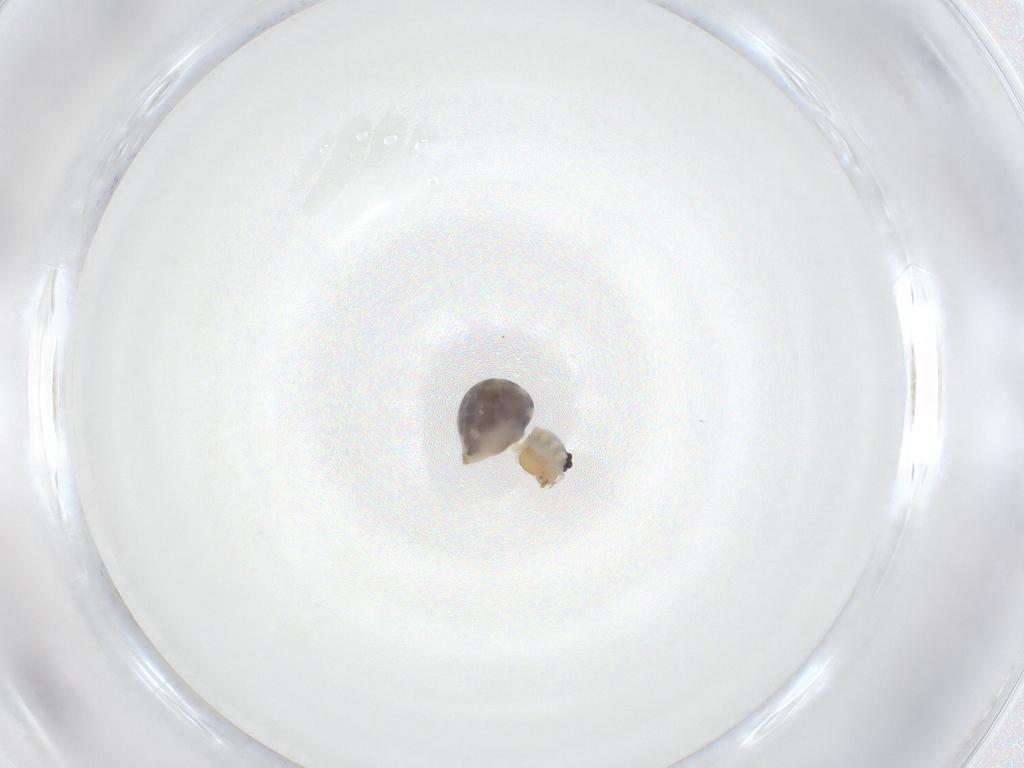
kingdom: Animalia
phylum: Arthropoda
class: Arachnida
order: Araneae
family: Pholcidae
